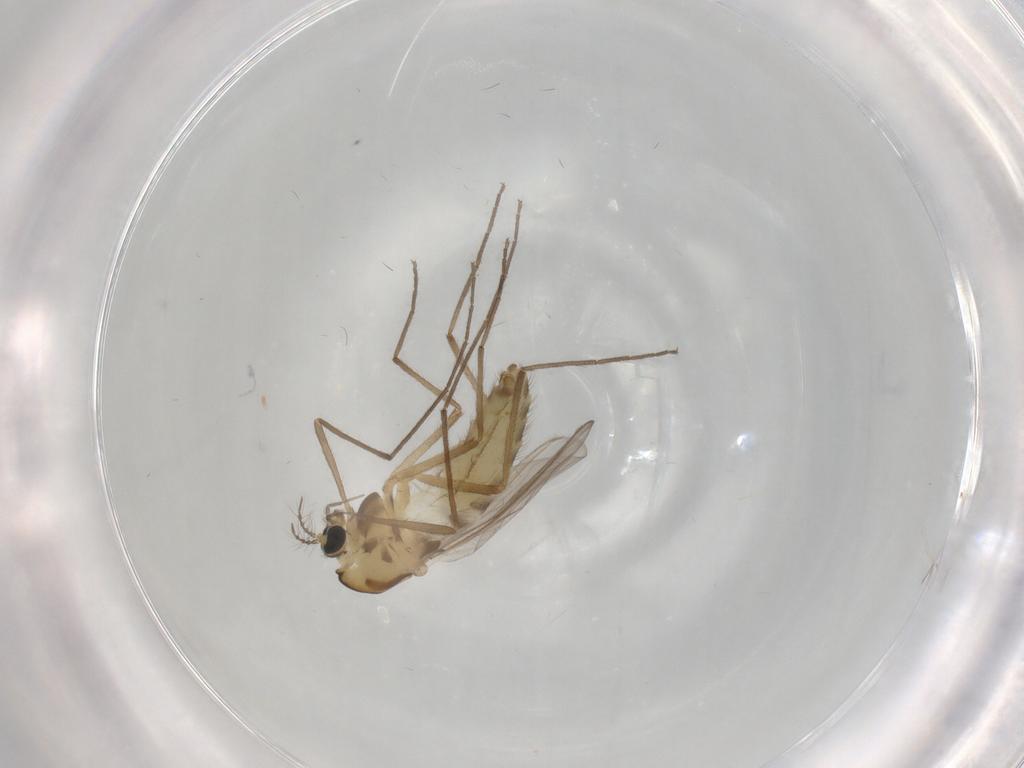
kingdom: Animalia
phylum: Arthropoda
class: Insecta
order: Diptera
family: Chironomidae
